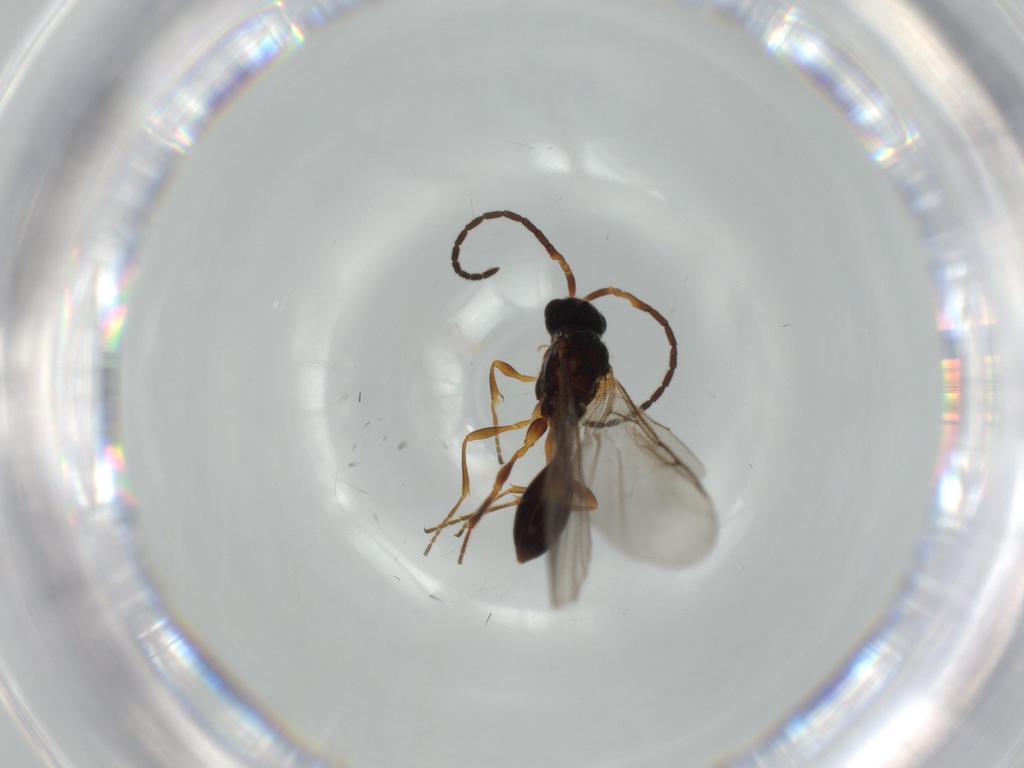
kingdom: Animalia
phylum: Arthropoda
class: Insecta
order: Hymenoptera
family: Diapriidae
